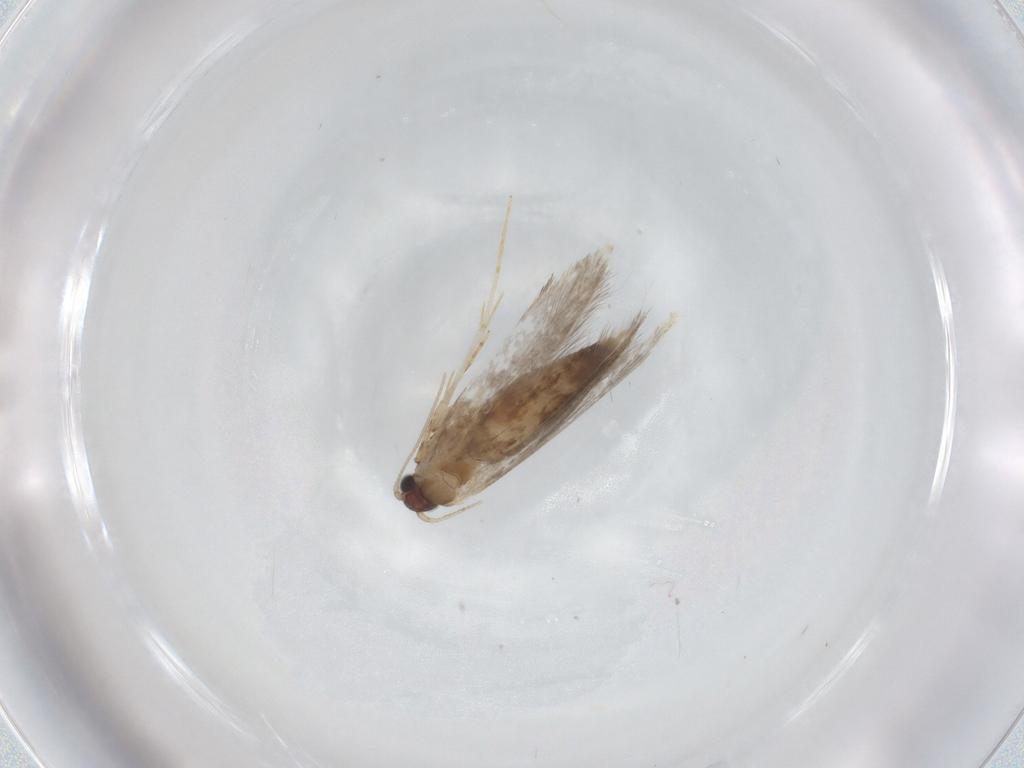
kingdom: Animalia
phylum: Arthropoda
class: Insecta
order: Lepidoptera
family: Tineidae
